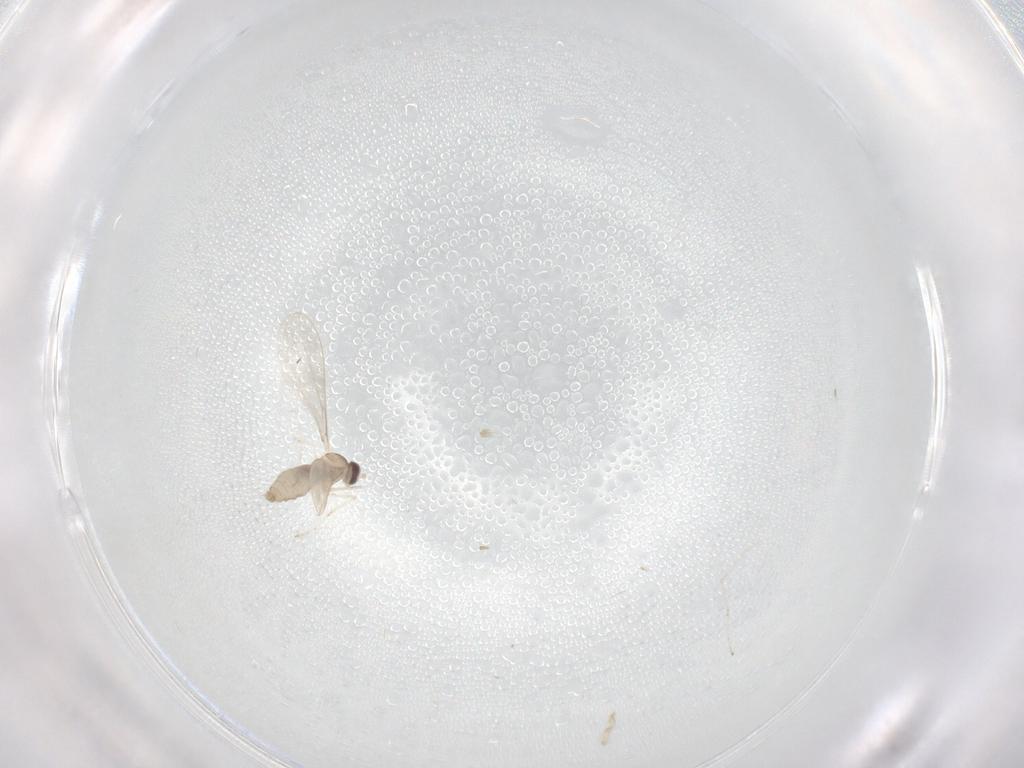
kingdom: Animalia
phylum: Arthropoda
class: Insecta
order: Diptera
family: Cecidomyiidae
